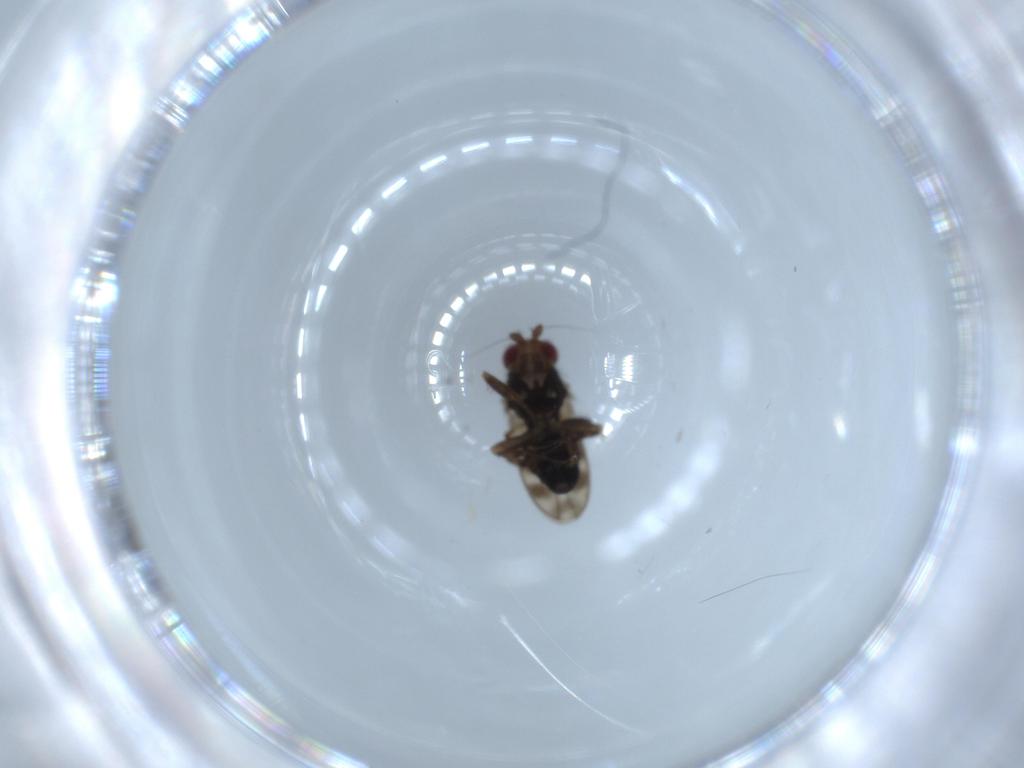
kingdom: Animalia
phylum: Arthropoda
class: Insecta
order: Diptera
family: Sphaeroceridae
